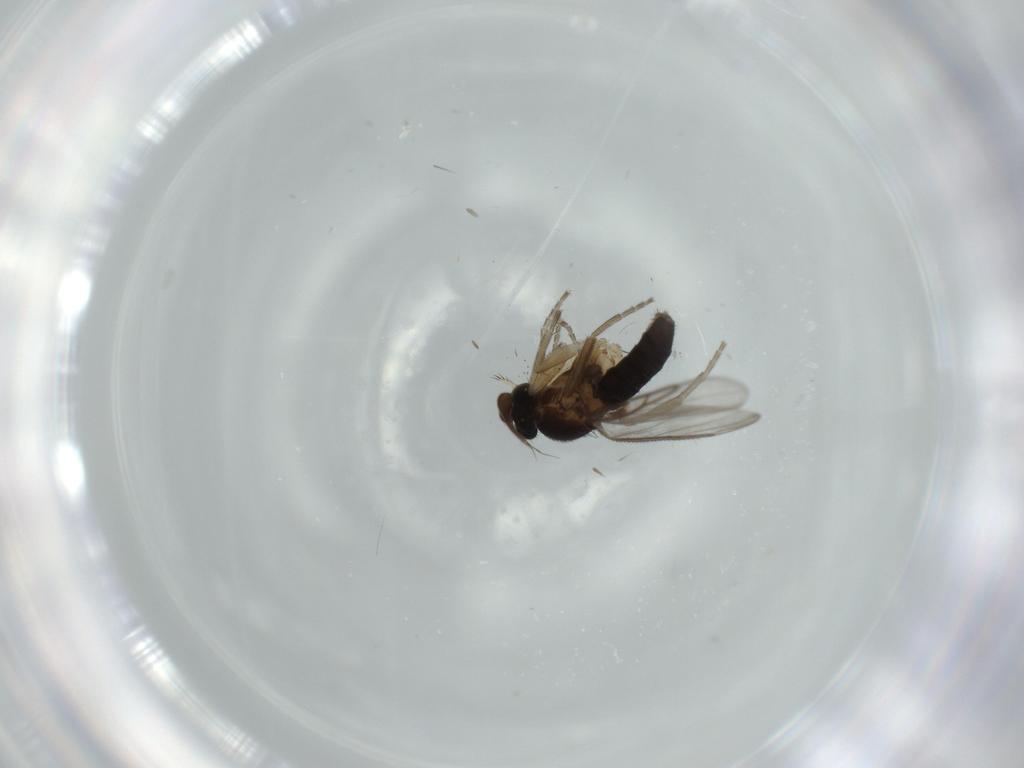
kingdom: Animalia
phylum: Arthropoda
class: Insecta
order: Diptera
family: Phoridae
